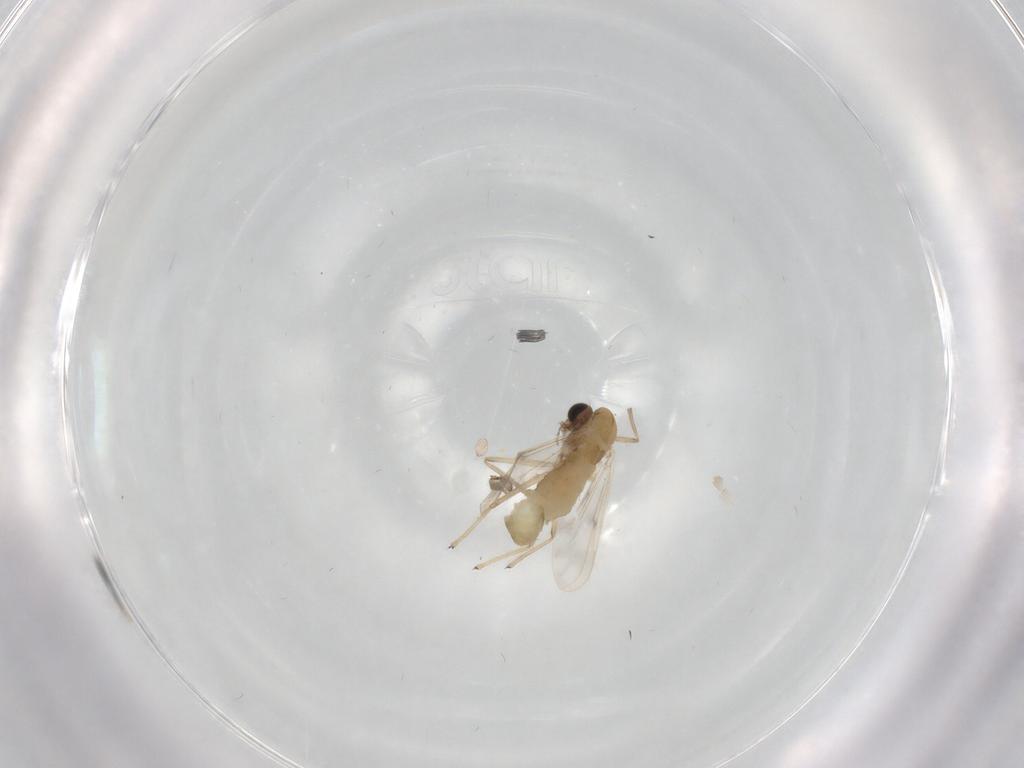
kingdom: Animalia
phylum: Arthropoda
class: Insecta
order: Diptera
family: Chironomidae
